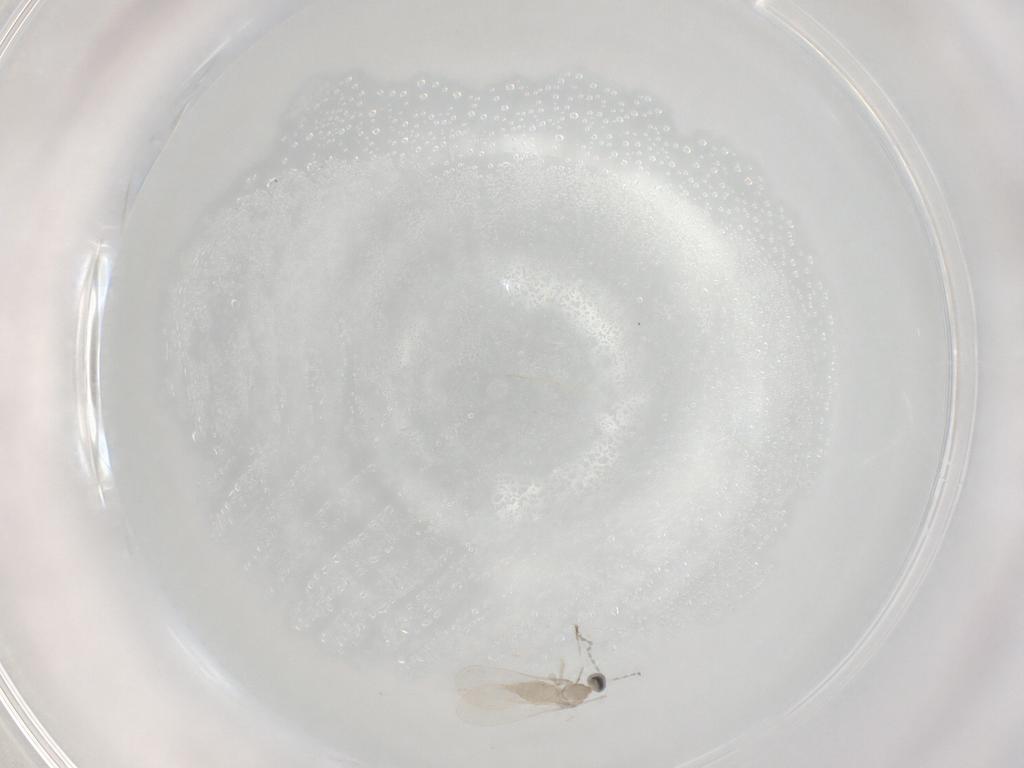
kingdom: Animalia
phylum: Arthropoda
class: Insecta
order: Diptera
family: Cecidomyiidae
